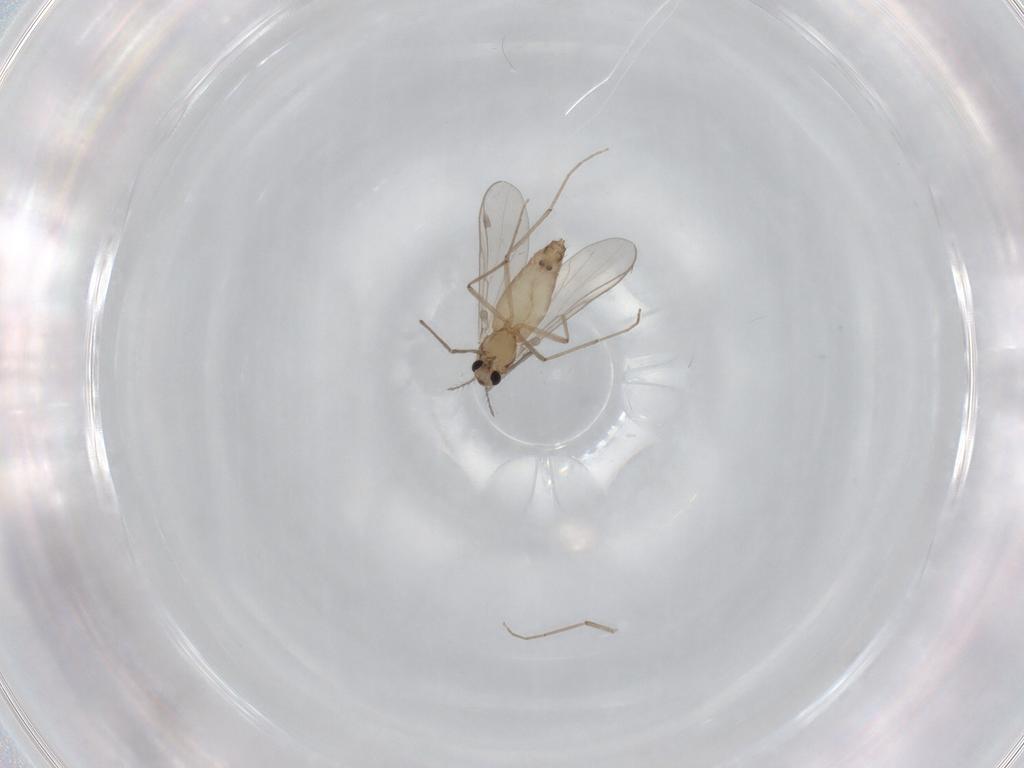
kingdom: Animalia
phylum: Arthropoda
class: Insecta
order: Diptera
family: Chironomidae
